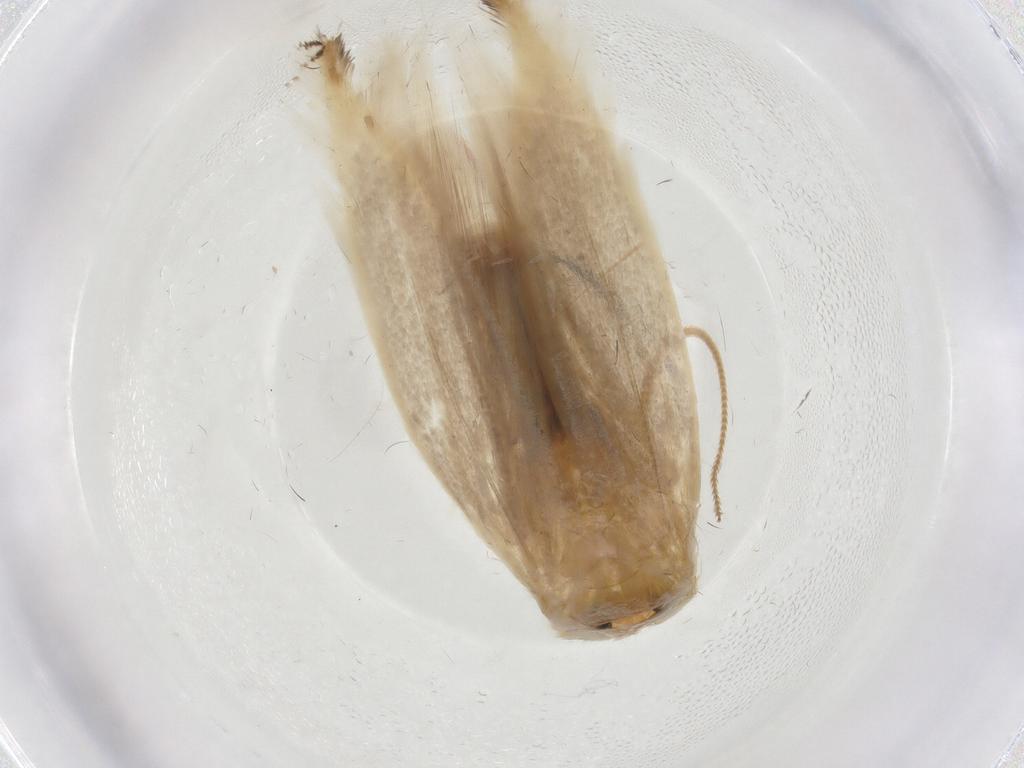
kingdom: Animalia
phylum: Arthropoda
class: Insecta
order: Lepidoptera
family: Opostegidae
